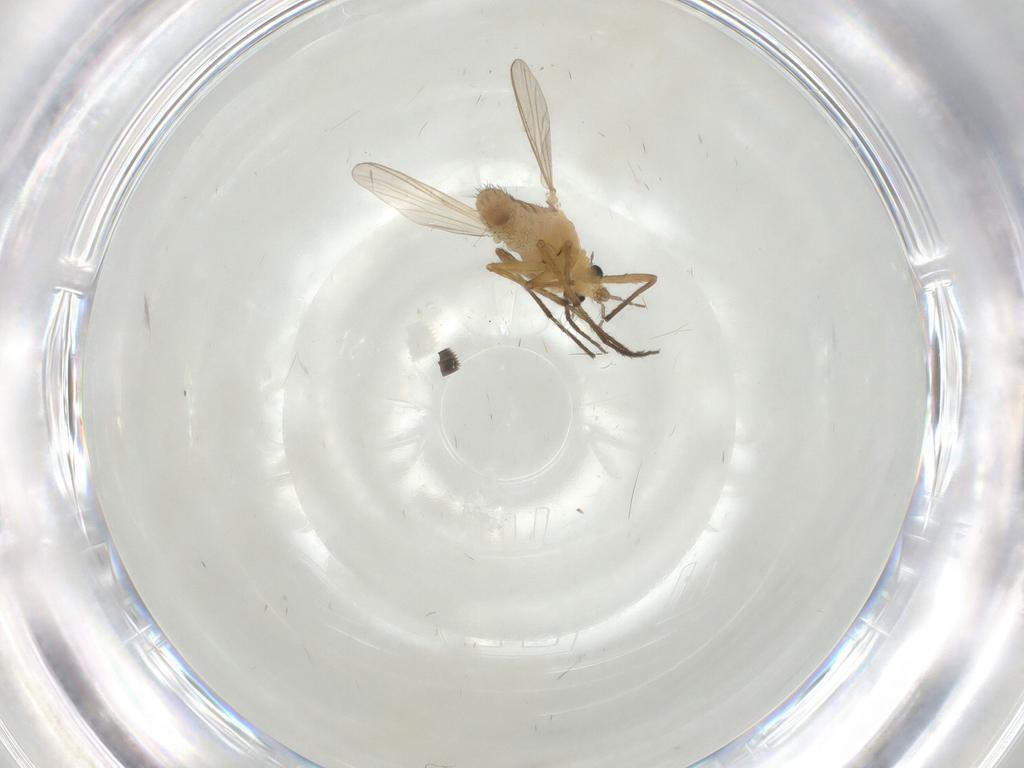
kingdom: Animalia
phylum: Arthropoda
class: Insecta
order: Diptera
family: Chironomidae
